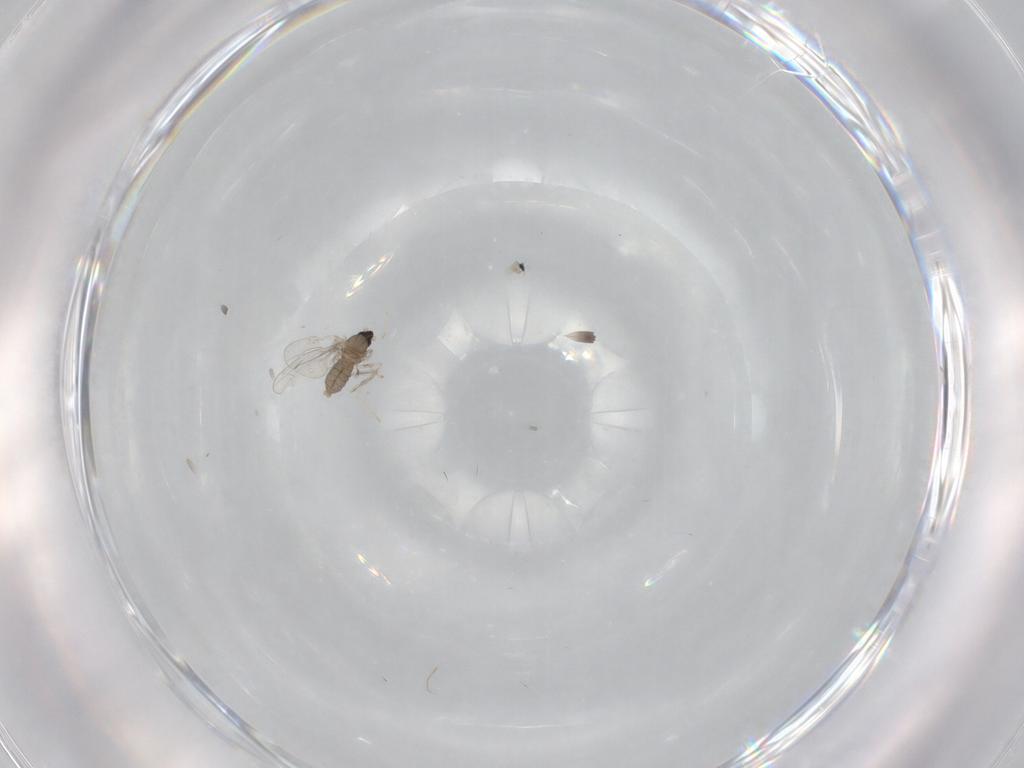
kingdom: Animalia
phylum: Arthropoda
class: Insecta
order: Diptera
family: Cecidomyiidae
